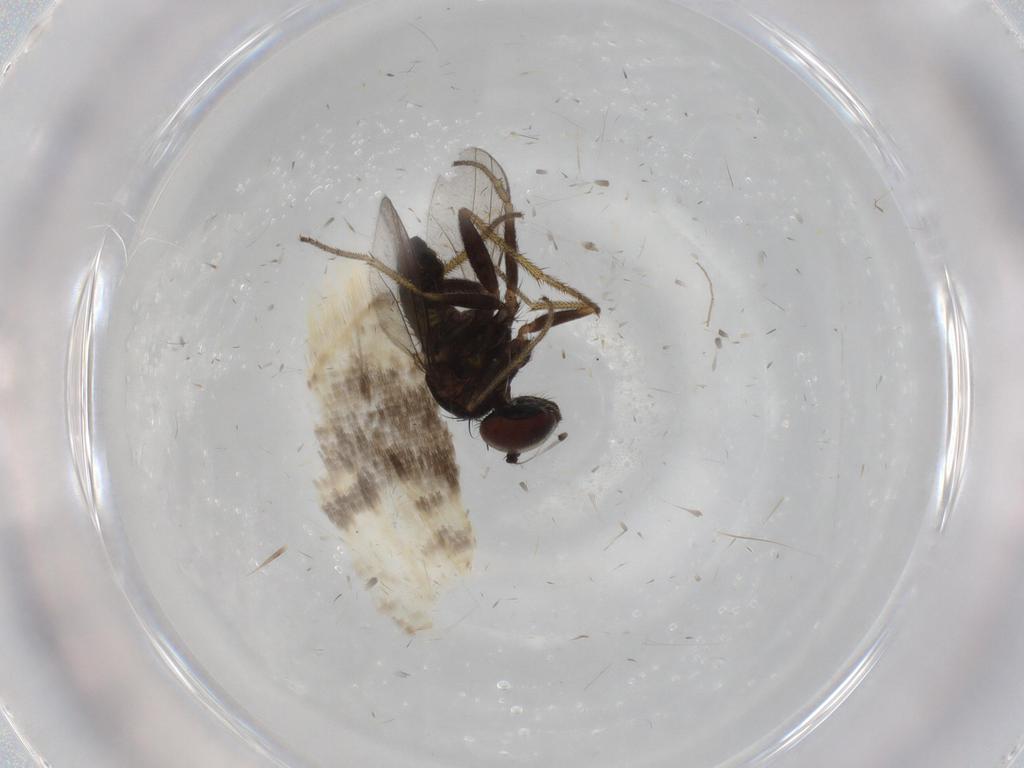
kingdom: Animalia
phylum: Arthropoda
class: Insecta
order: Diptera
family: Dolichopodidae
